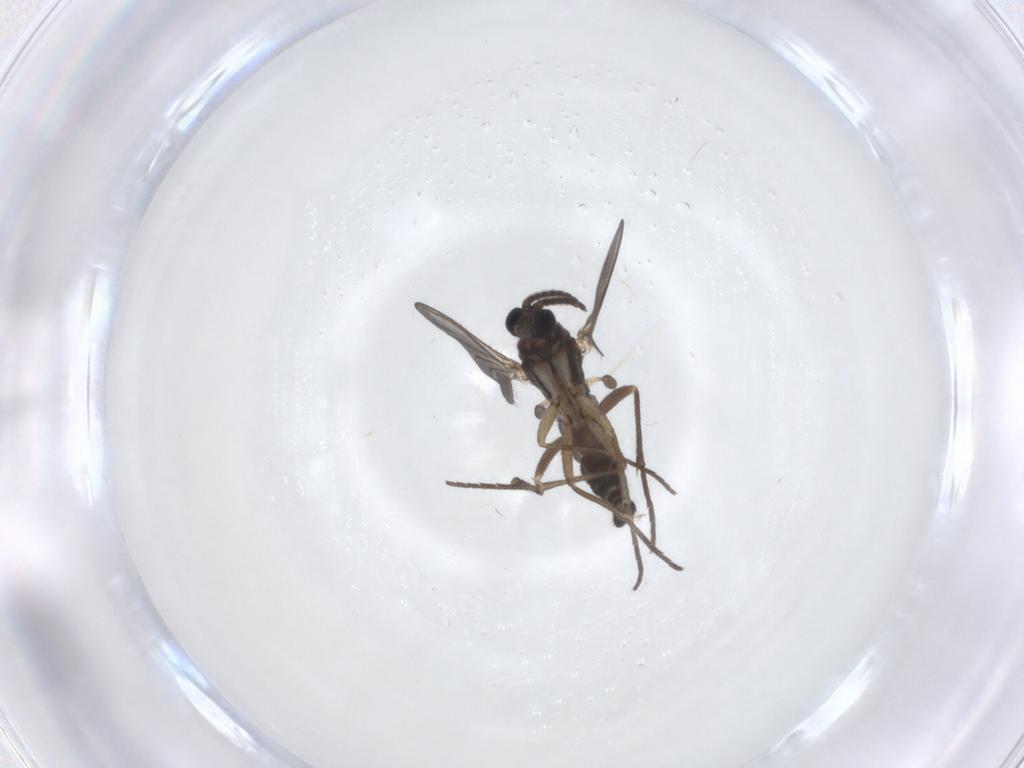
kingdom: Animalia
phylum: Arthropoda
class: Insecta
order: Diptera
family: Sciaridae
